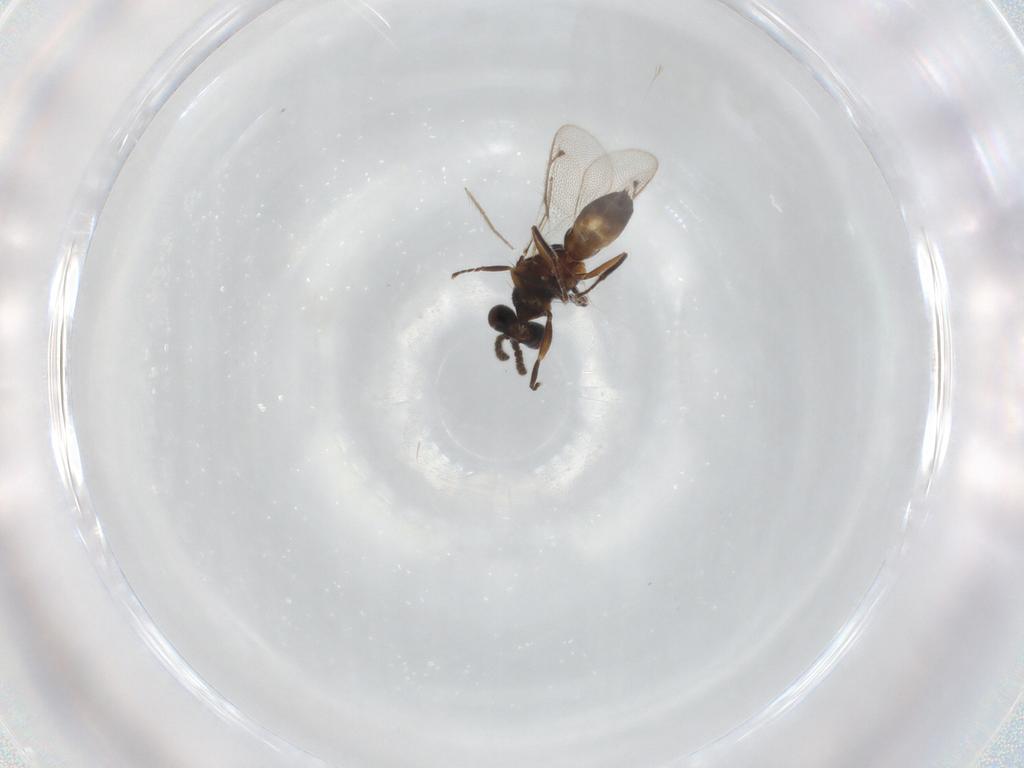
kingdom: Animalia
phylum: Arthropoda
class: Insecta
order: Hymenoptera
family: Eulophidae
